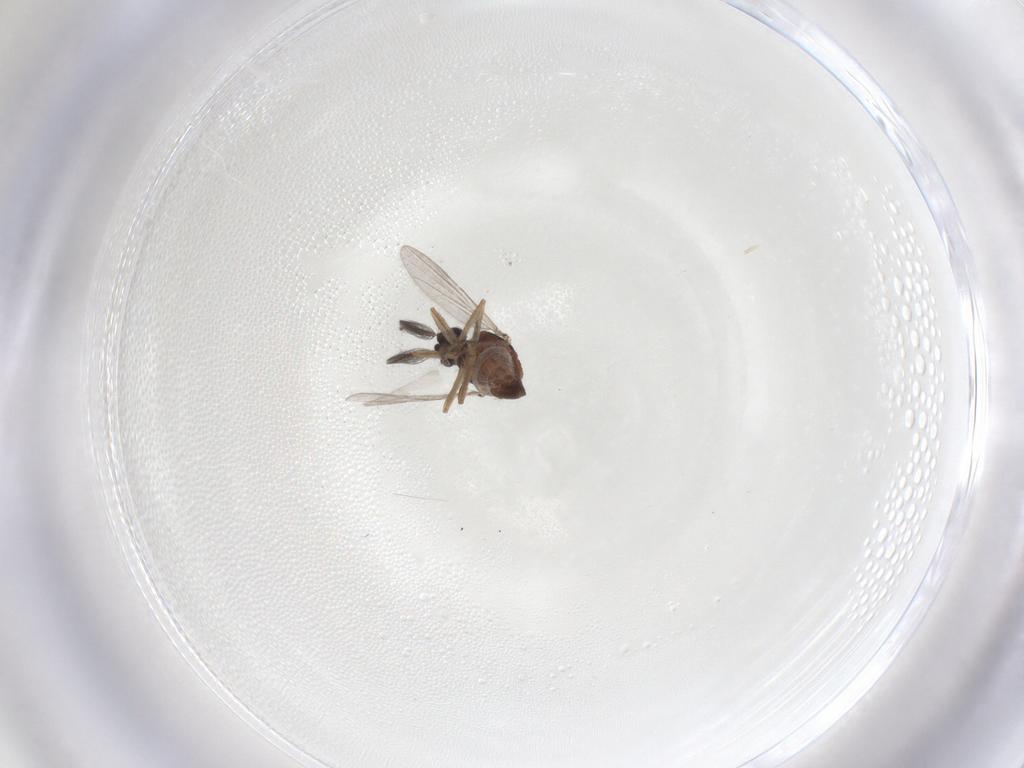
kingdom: Animalia
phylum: Arthropoda
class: Insecta
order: Diptera
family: Ceratopogonidae
